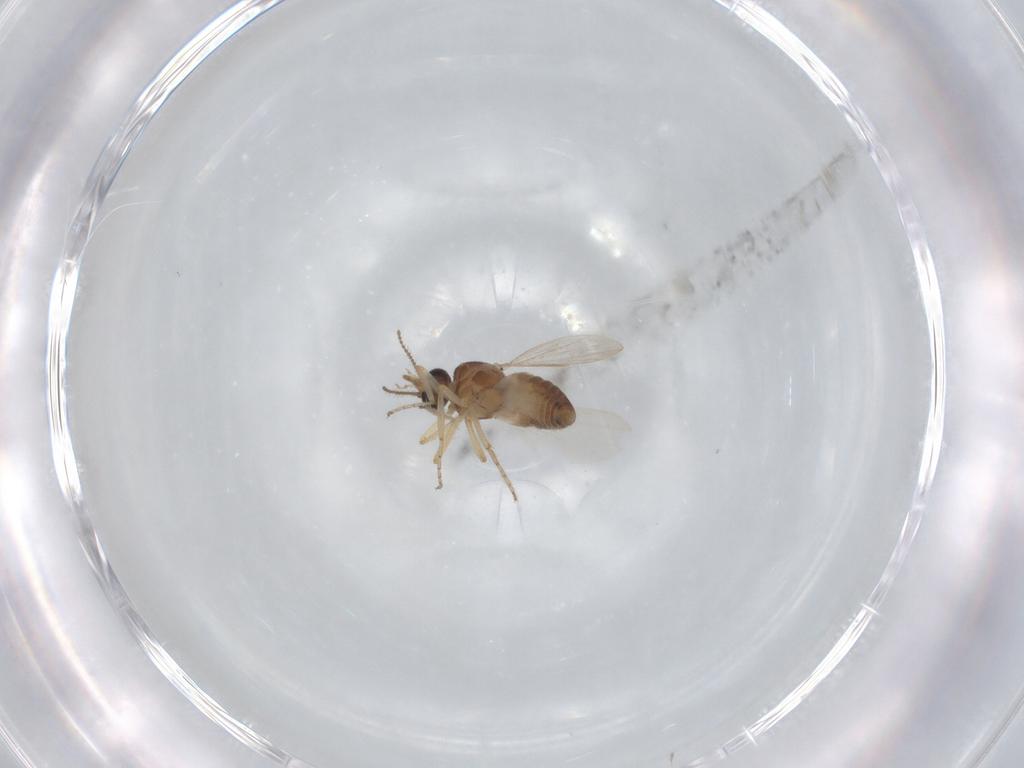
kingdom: Animalia
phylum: Arthropoda
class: Insecta
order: Diptera
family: Ceratopogonidae
